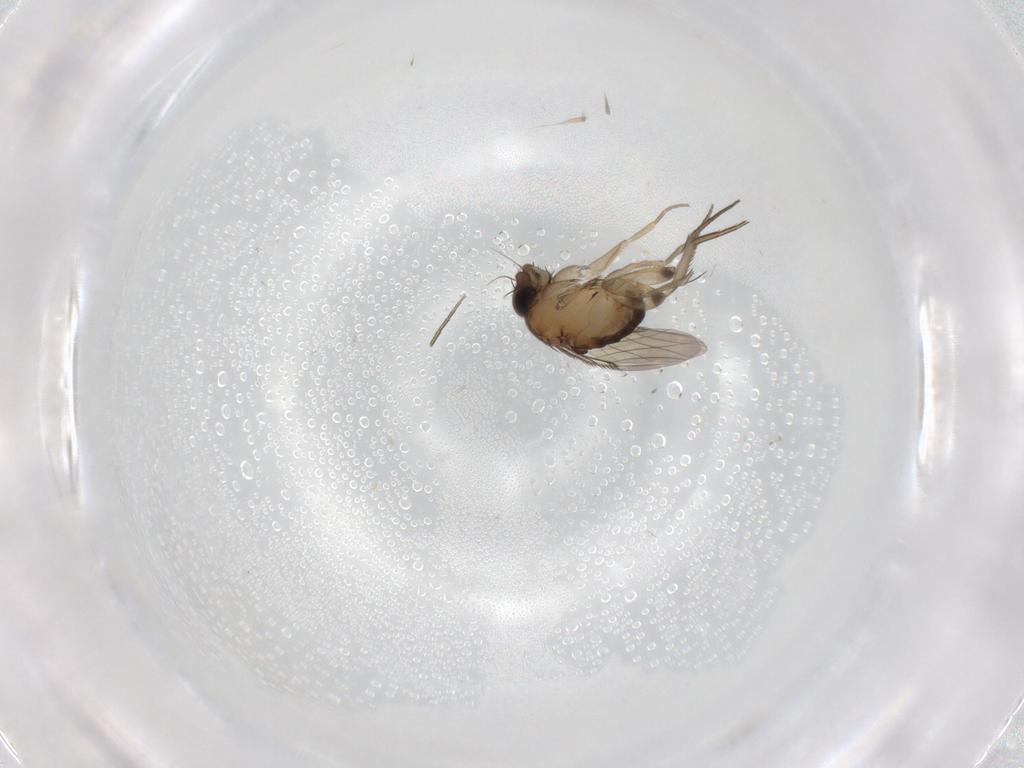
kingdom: Animalia
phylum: Arthropoda
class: Insecta
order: Diptera
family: Phoridae
